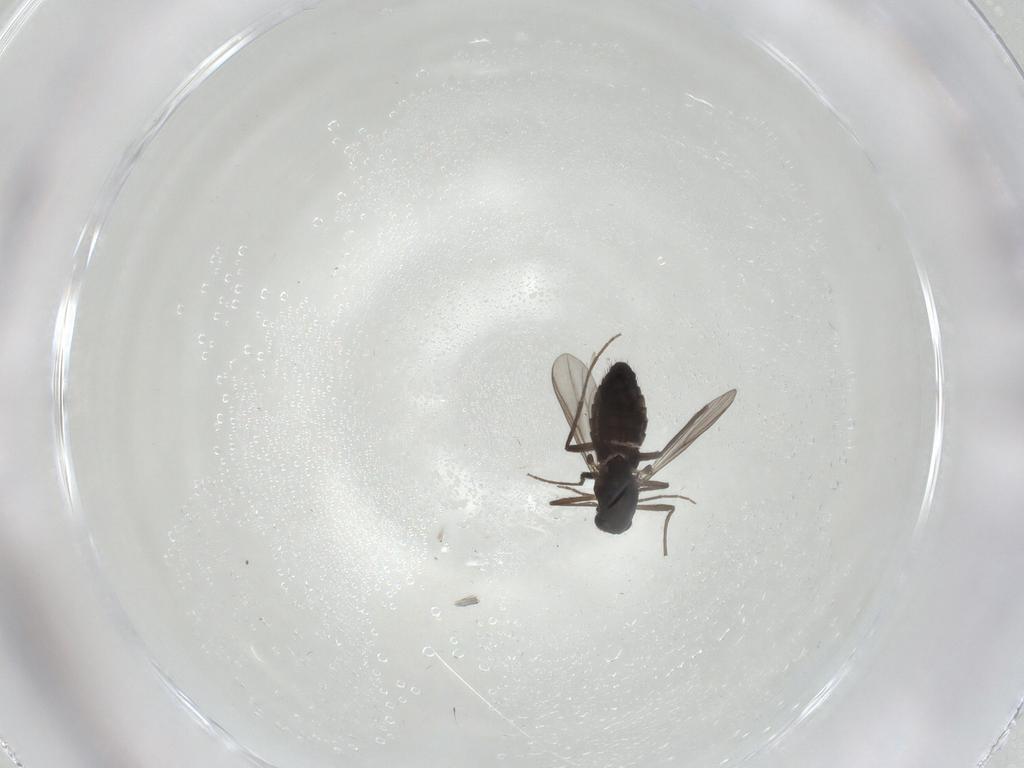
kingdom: Animalia
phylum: Arthropoda
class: Insecta
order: Diptera
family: Chironomidae
